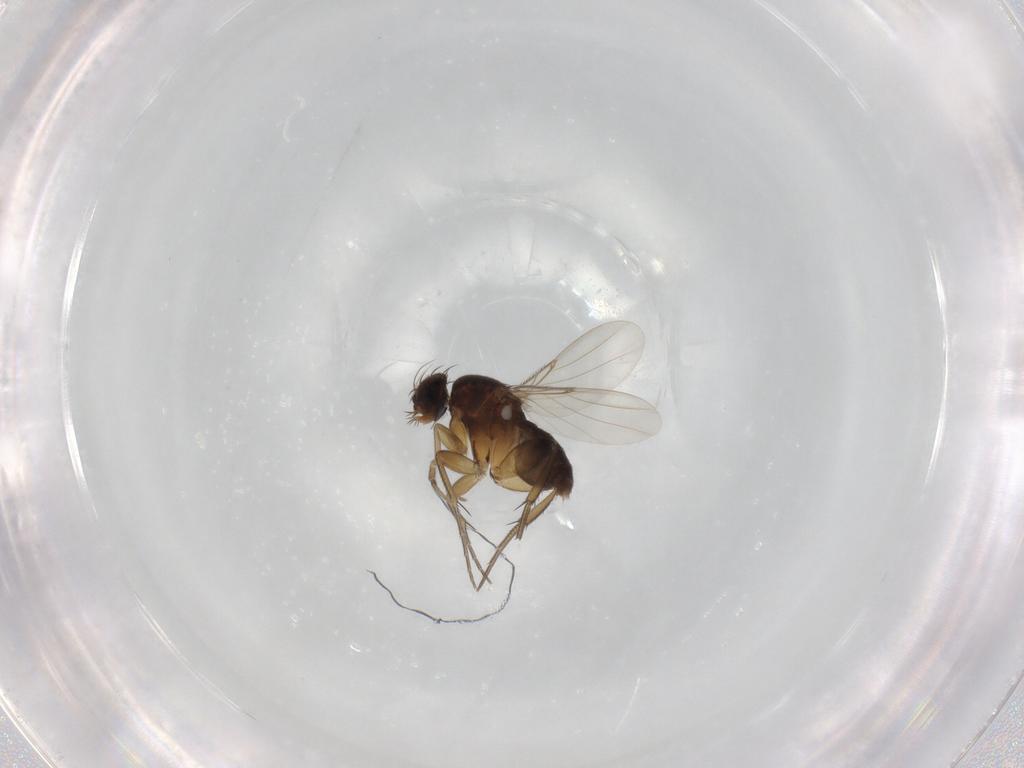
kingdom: Animalia
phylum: Arthropoda
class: Insecta
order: Diptera
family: Phoridae
